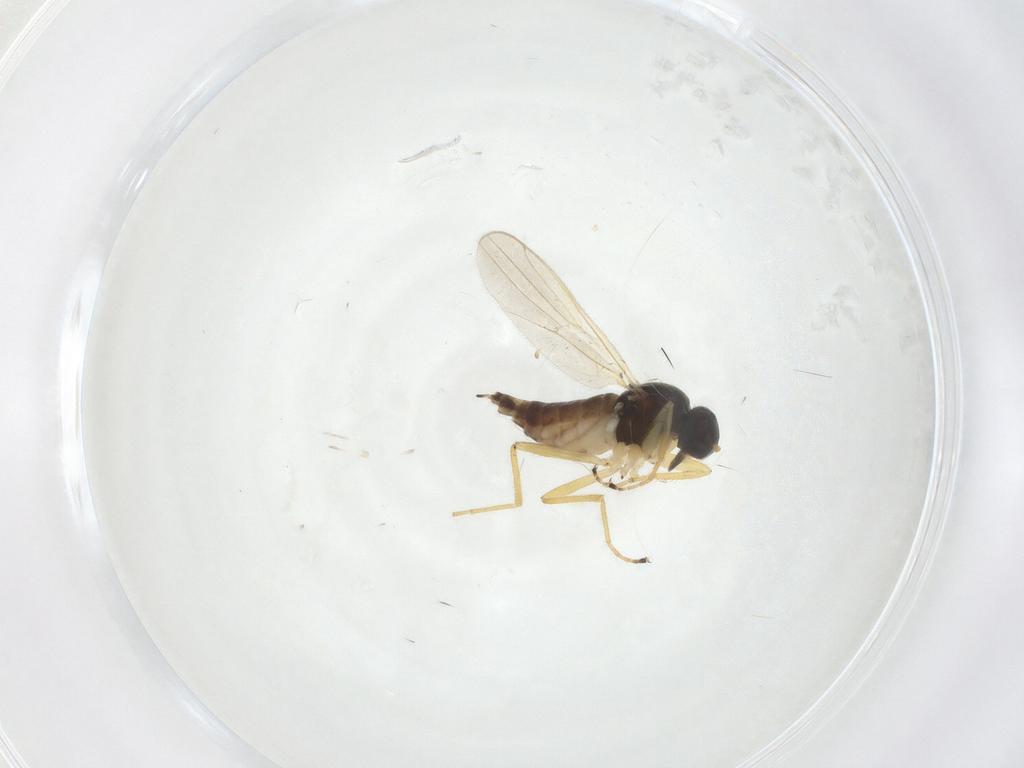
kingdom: Animalia
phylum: Arthropoda
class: Insecta
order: Diptera
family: Hybotidae
